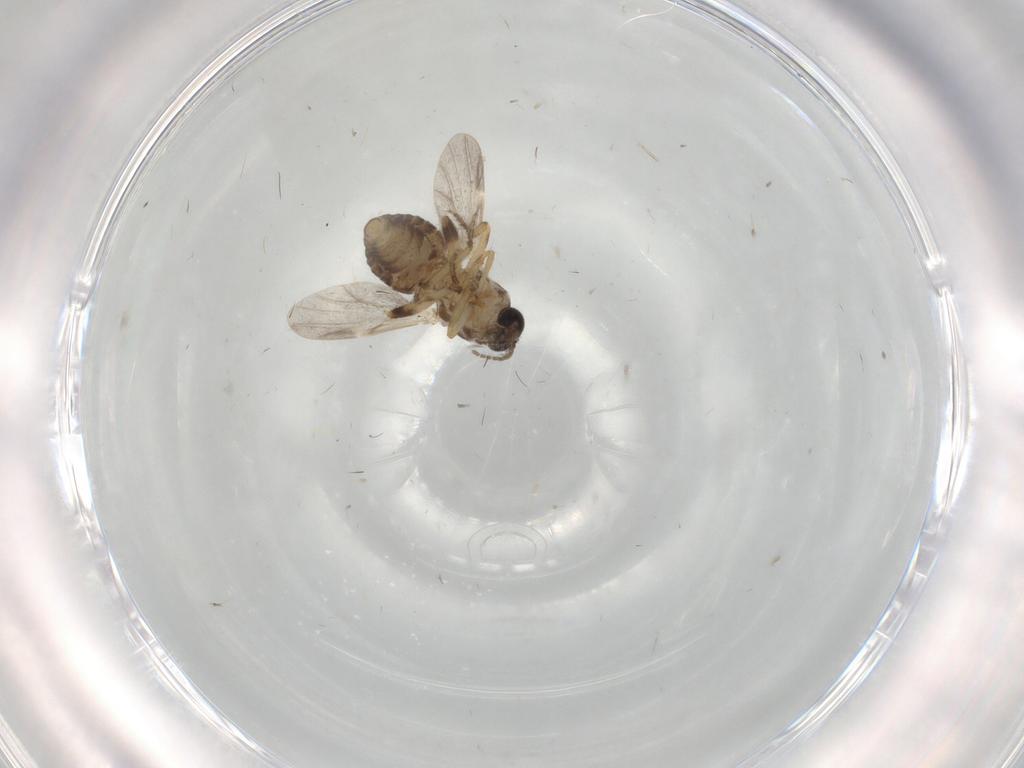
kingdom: Animalia
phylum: Arthropoda
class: Insecta
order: Diptera
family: Ceratopogonidae
